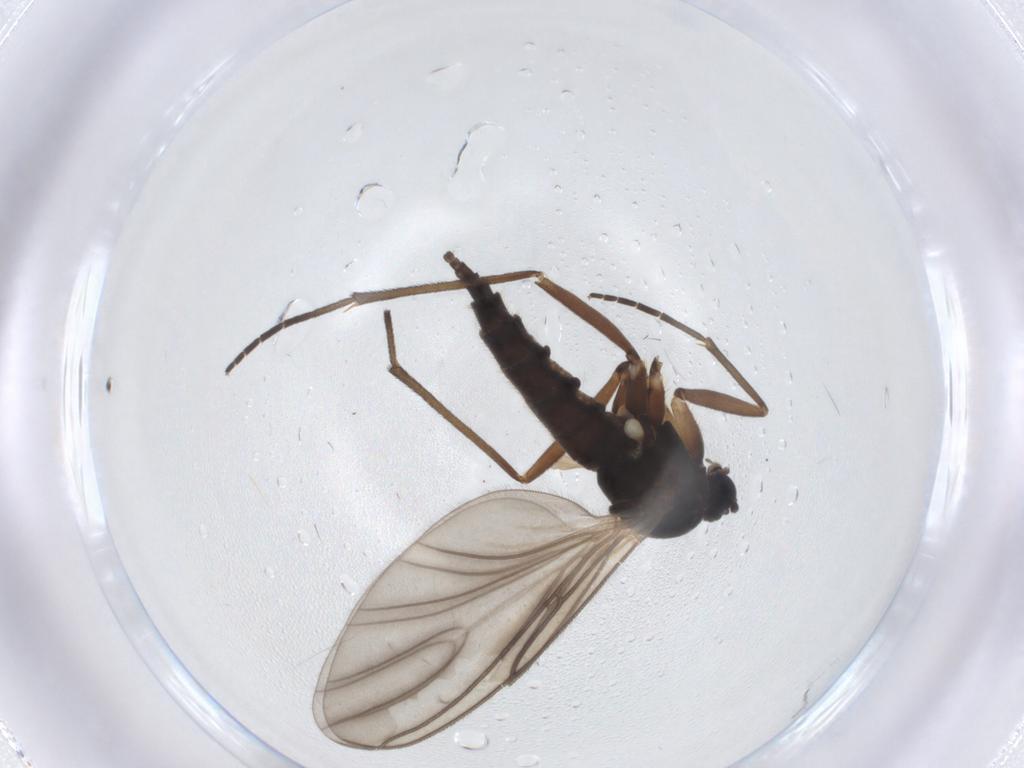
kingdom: Animalia
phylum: Arthropoda
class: Insecta
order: Diptera
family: Sciaridae
